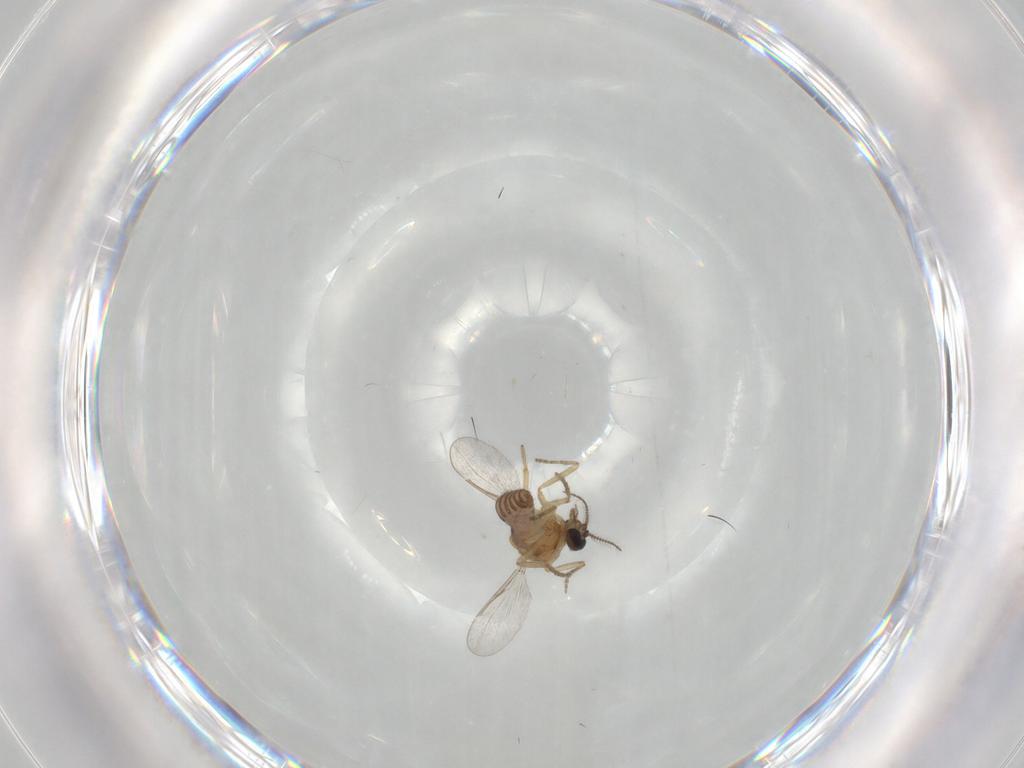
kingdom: Animalia
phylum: Arthropoda
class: Insecta
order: Diptera
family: Ceratopogonidae
